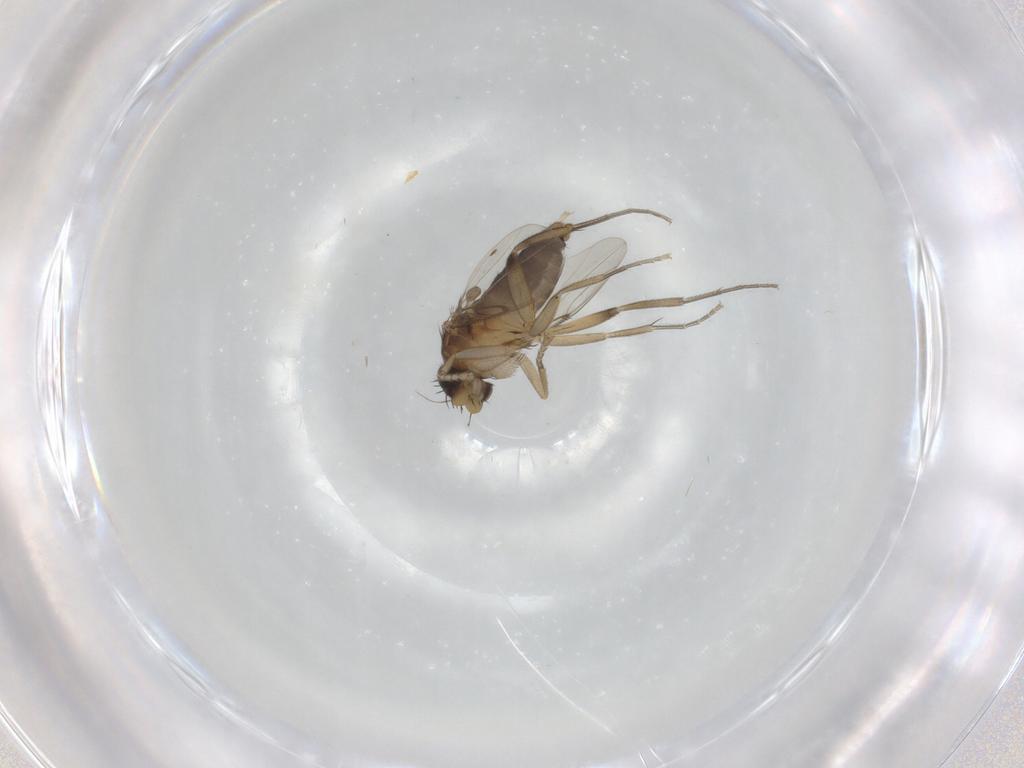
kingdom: Animalia
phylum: Arthropoda
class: Insecta
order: Diptera
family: Phoridae
